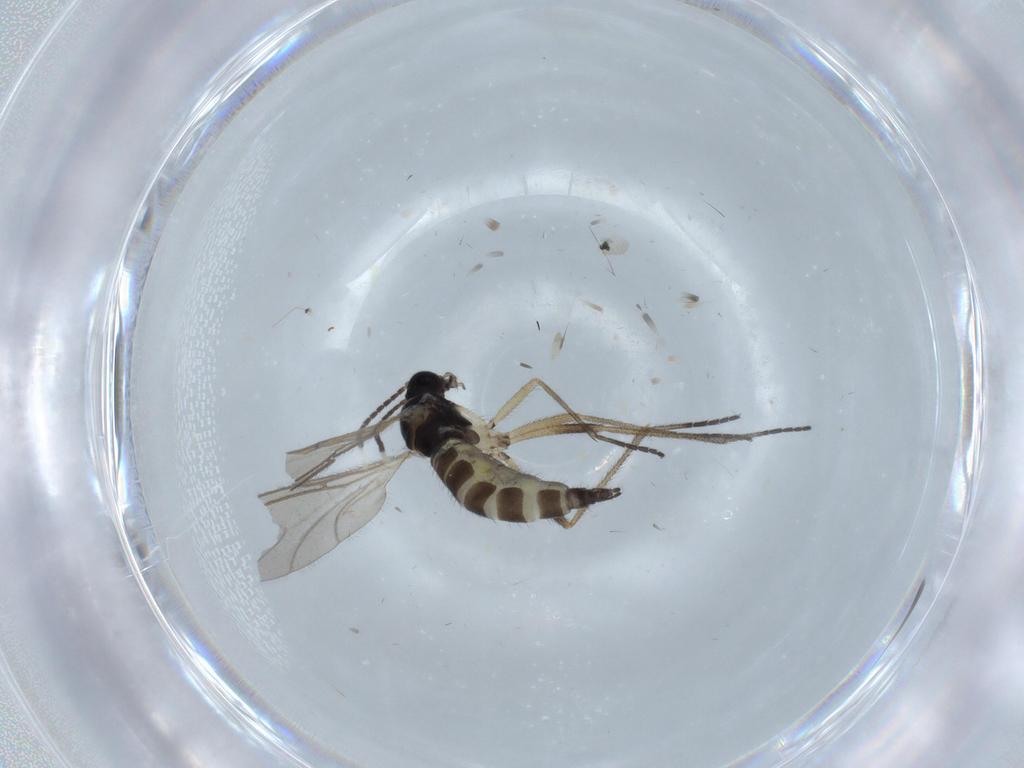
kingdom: Animalia
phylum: Arthropoda
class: Insecta
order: Diptera
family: Sciaridae
